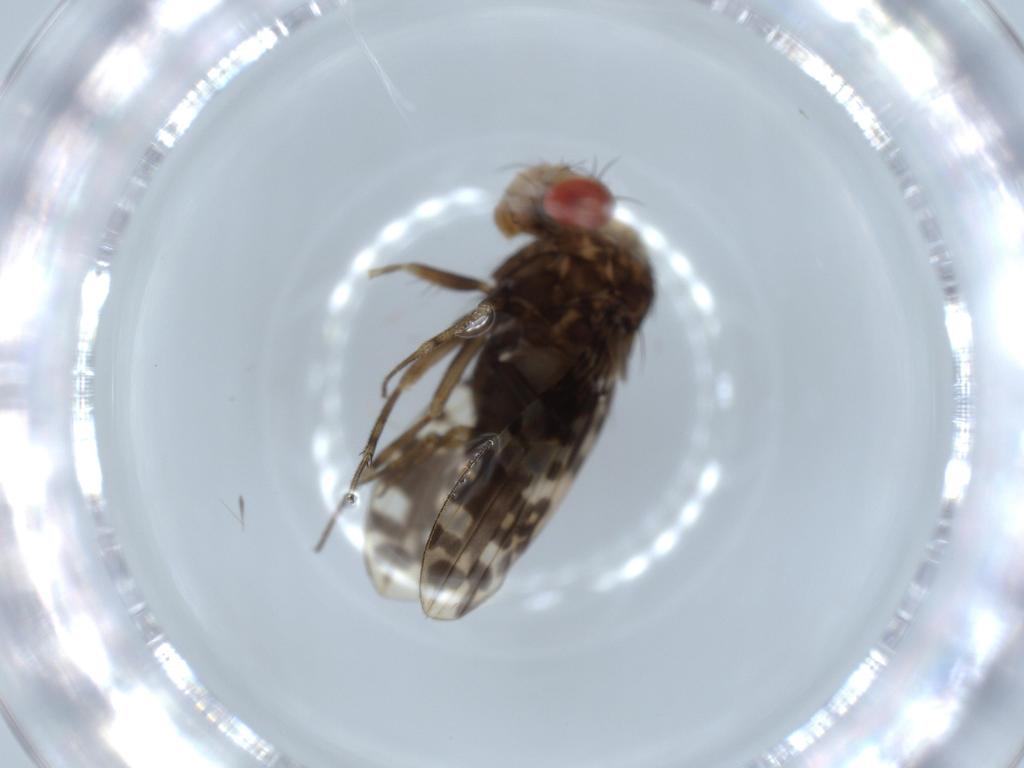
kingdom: Animalia
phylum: Arthropoda
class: Insecta
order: Diptera
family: Drosophilidae
